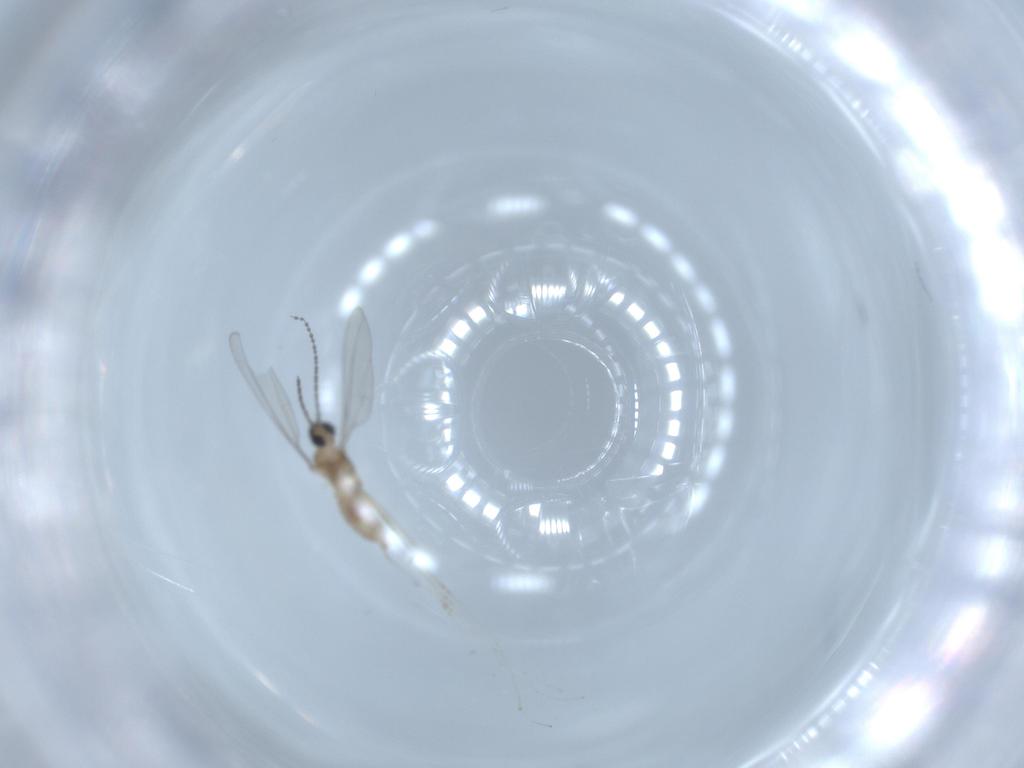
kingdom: Animalia
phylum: Arthropoda
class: Insecta
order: Diptera
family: Cecidomyiidae
